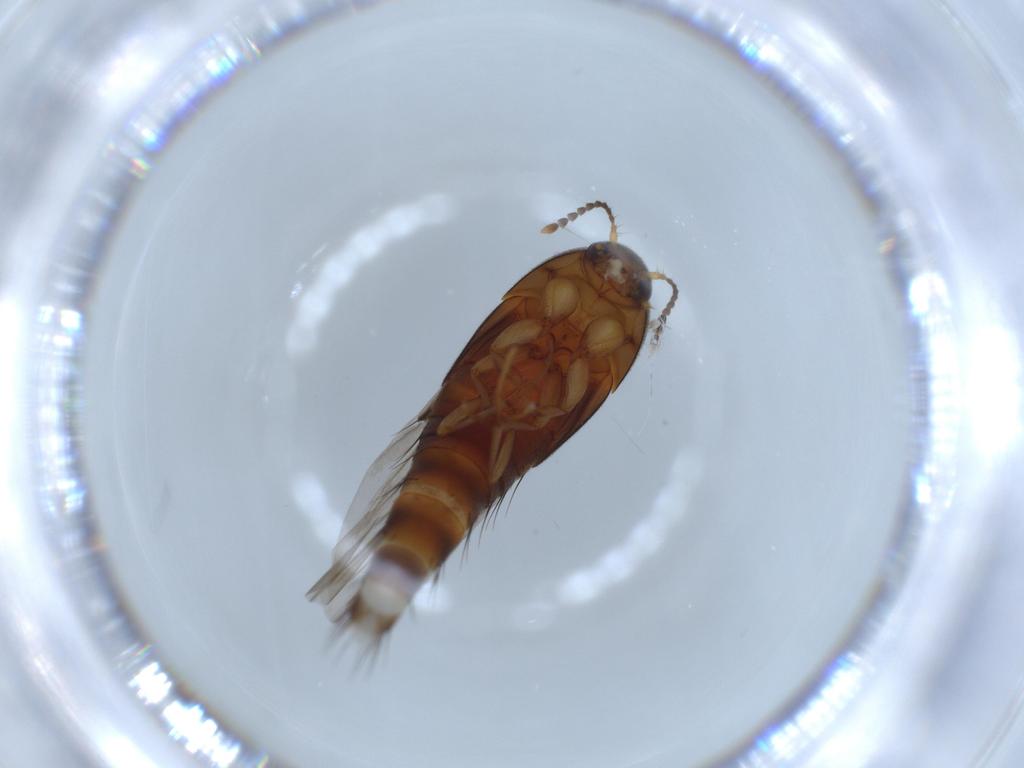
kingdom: Animalia
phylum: Arthropoda
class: Insecta
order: Coleoptera
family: Staphylinidae
